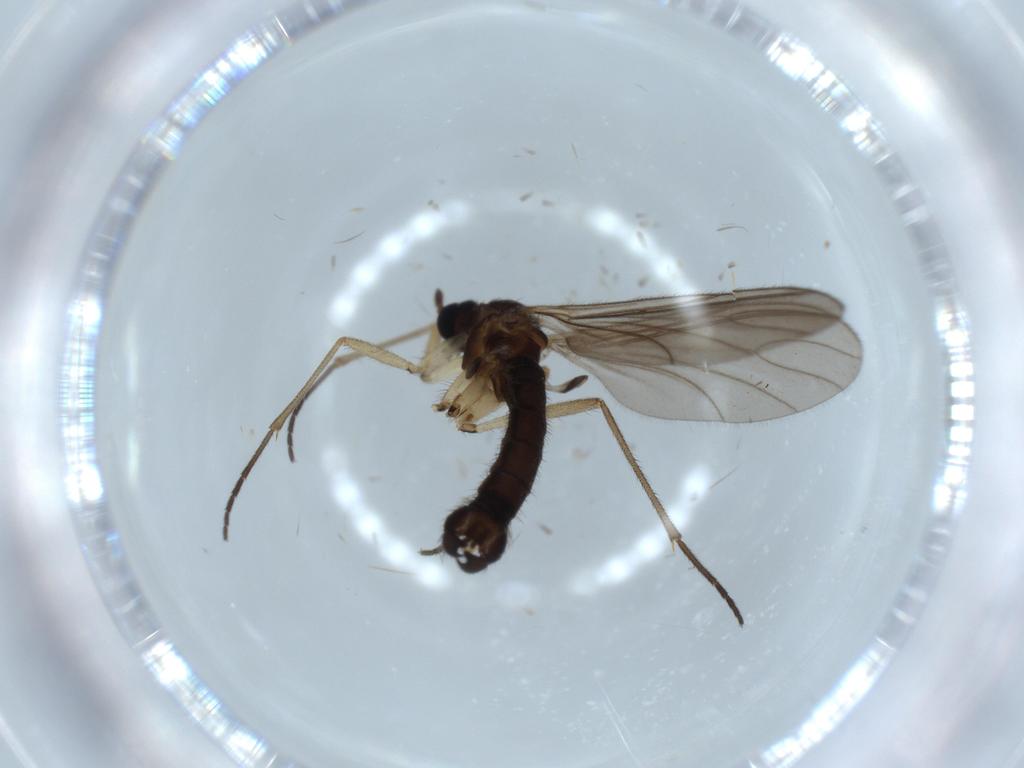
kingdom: Animalia
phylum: Arthropoda
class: Insecta
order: Diptera
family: Sciaridae
